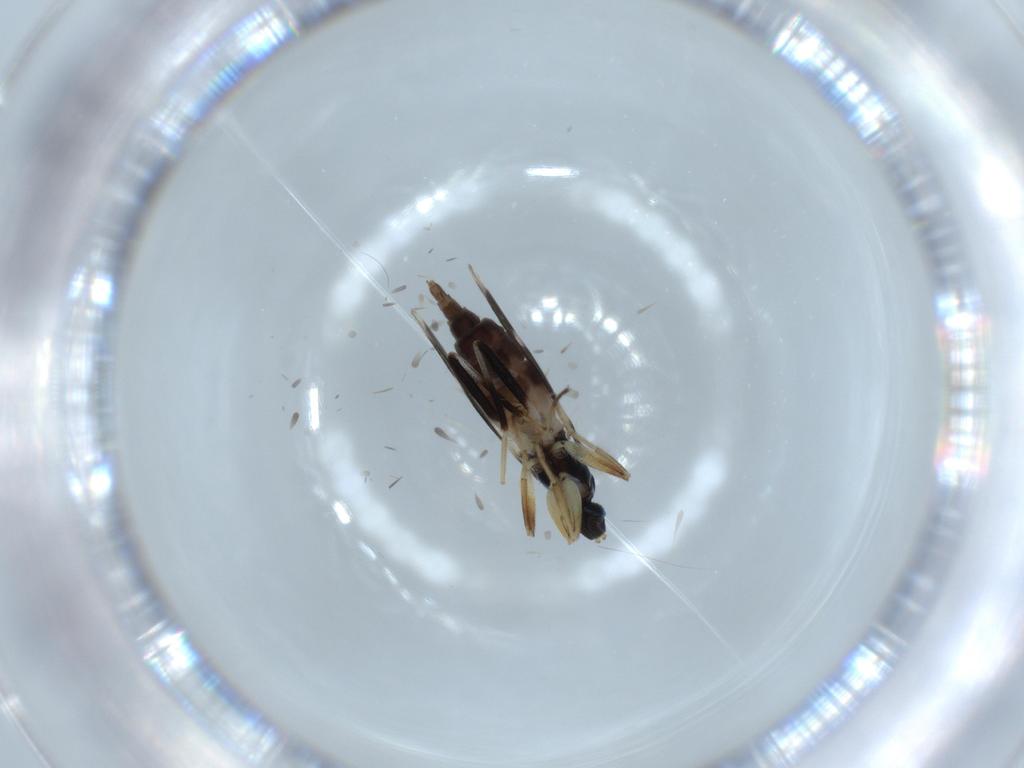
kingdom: Animalia
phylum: Arthropoda
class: Insecta
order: Diptera
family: Hybotidae
